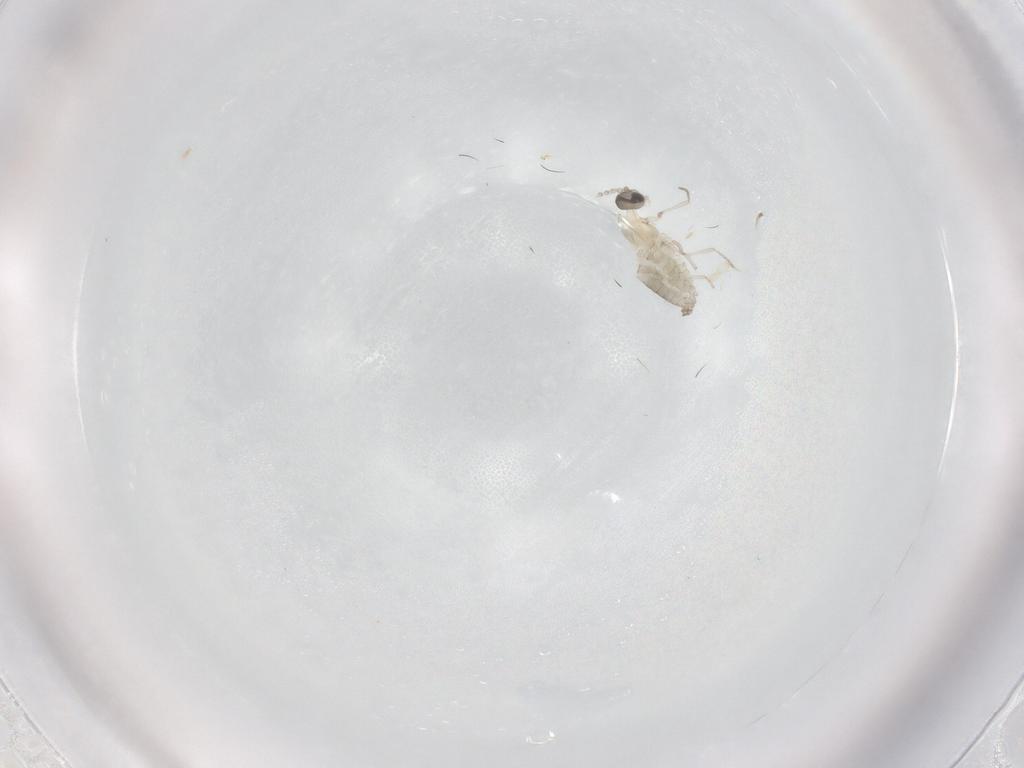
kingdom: Animalia
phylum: Arthropoda
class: Insecta
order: Diptera
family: Cecidomyiidae
